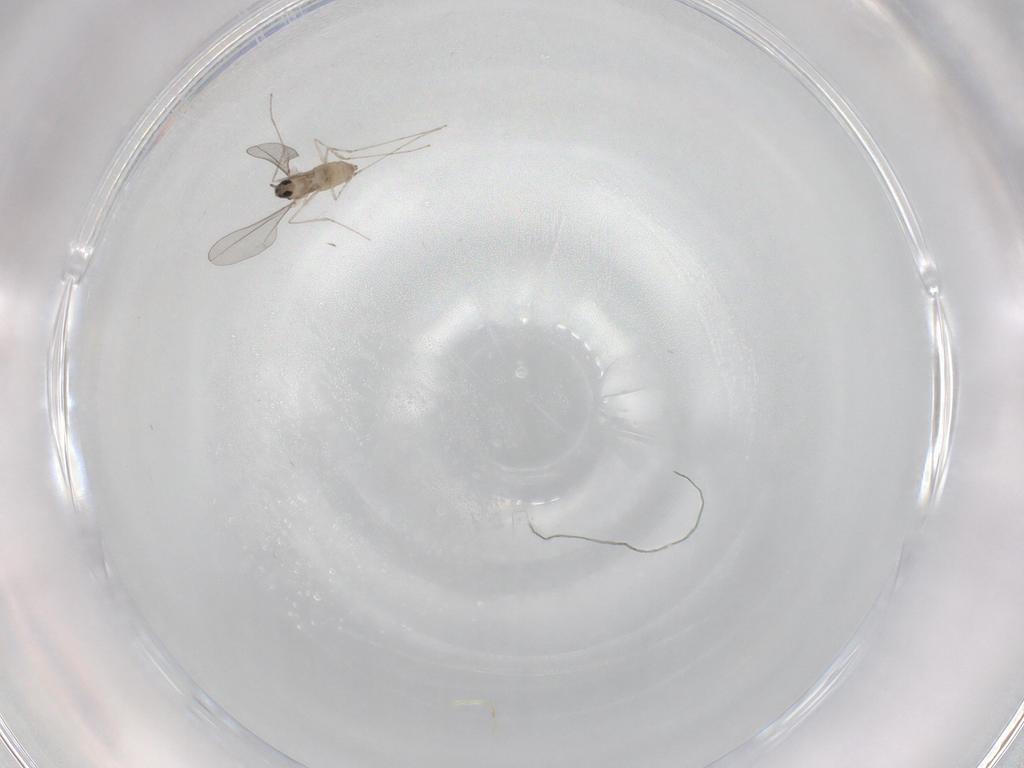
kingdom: Animalia
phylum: Arthropoda
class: Insecta
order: Diptera
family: Cecidomyiidae
